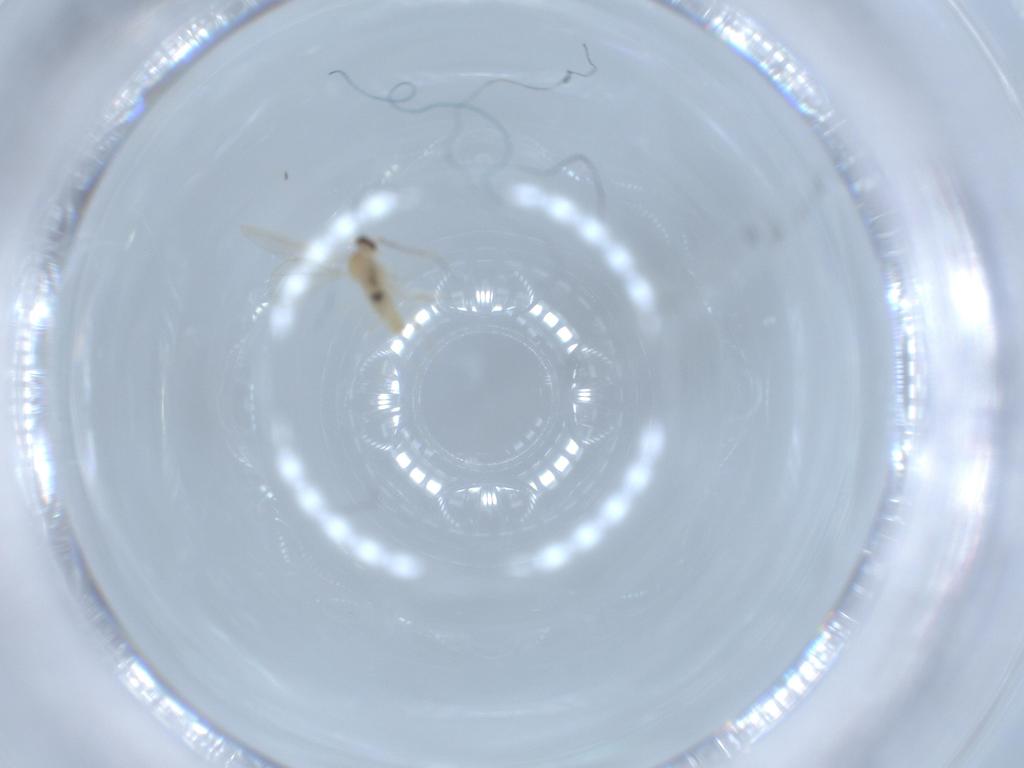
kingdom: Animalia
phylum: Arthropoda
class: Insecta
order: Diptera
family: Cecidomyiidae
